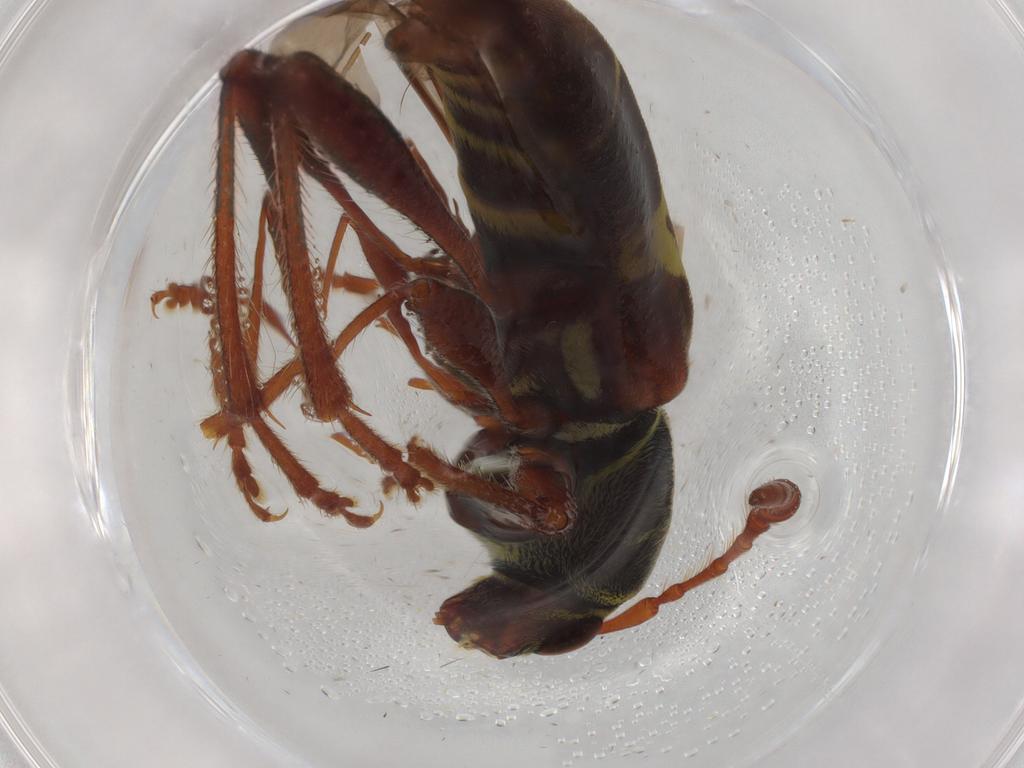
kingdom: Animalia
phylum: Arthropoda
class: Insecta
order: Coleoptera
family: Cerambycidae
